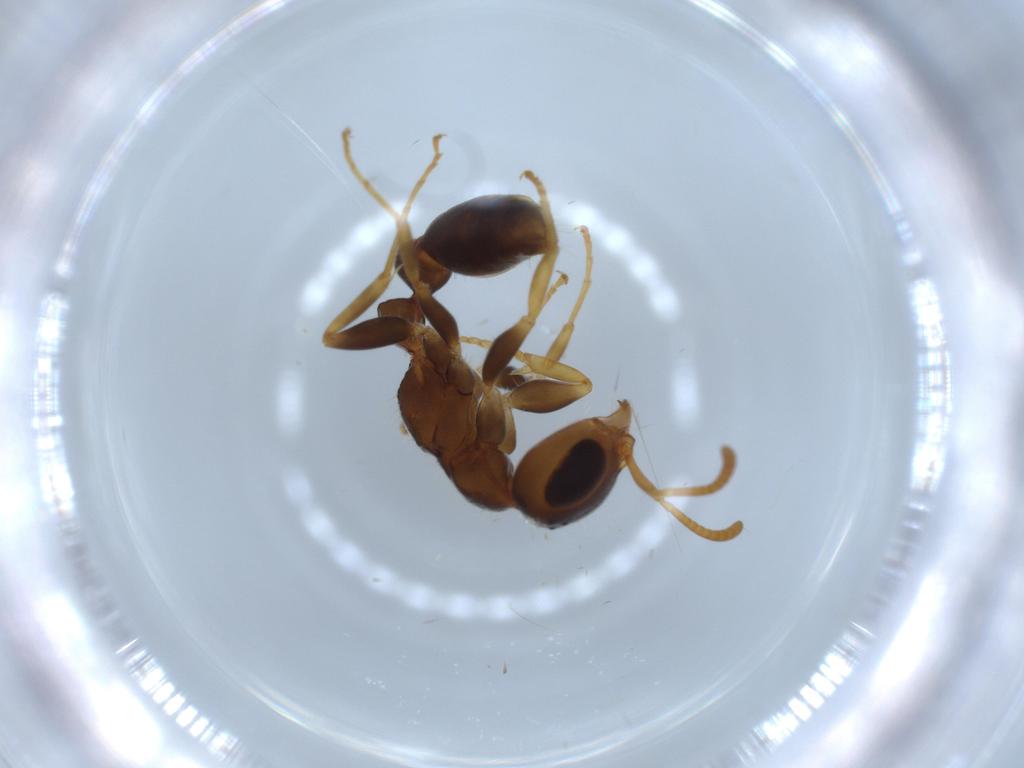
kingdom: Animalia
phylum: Arthropoda
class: Insecta
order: Hymenoptera
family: Formicidae
